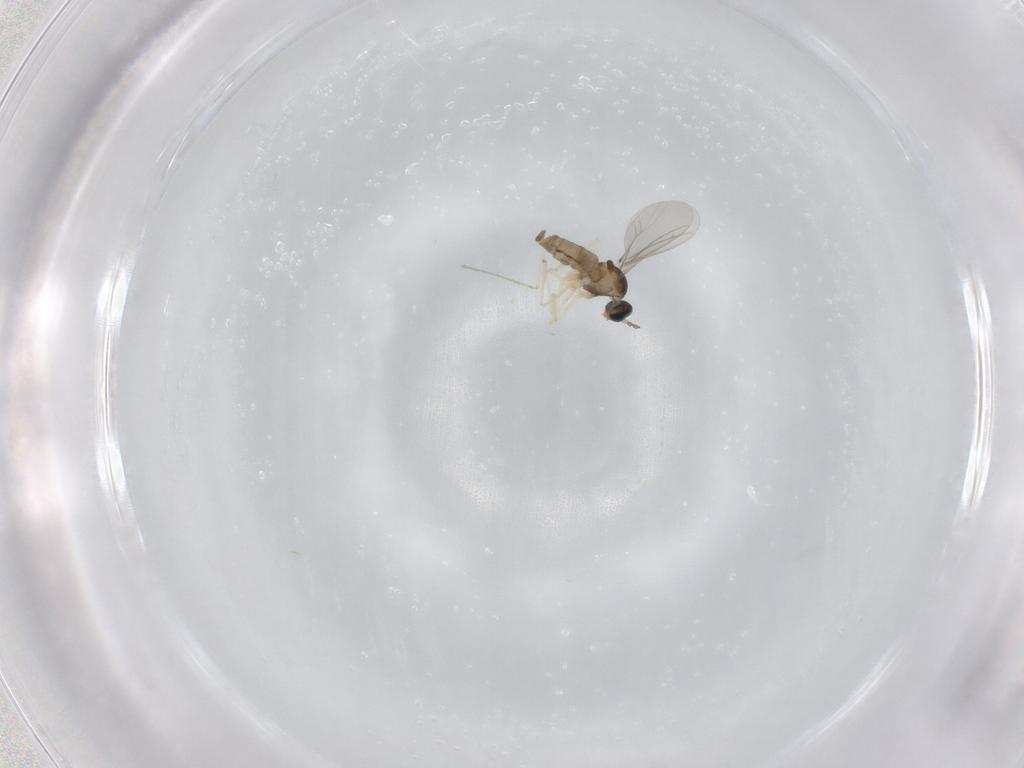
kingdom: Animalia
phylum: Arthropoda
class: Insecta
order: Diptera
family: Cecidomyiidae
